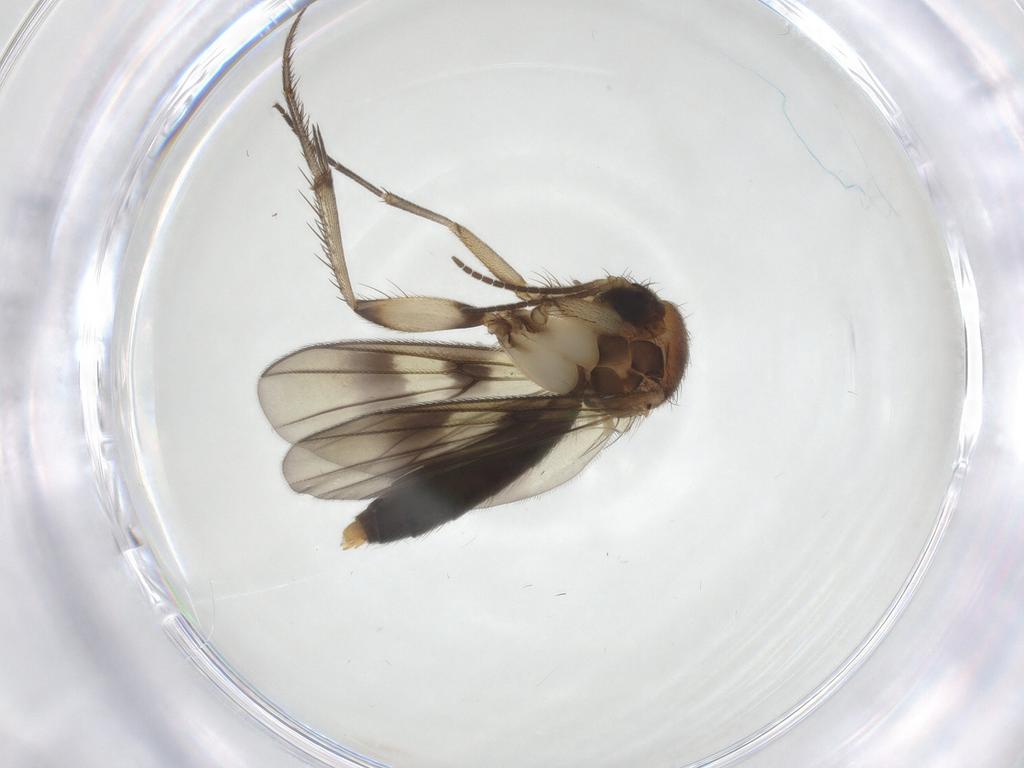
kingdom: Animalia
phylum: Arthropoda
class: Insecta
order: Diptera
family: Mycetophilidae
